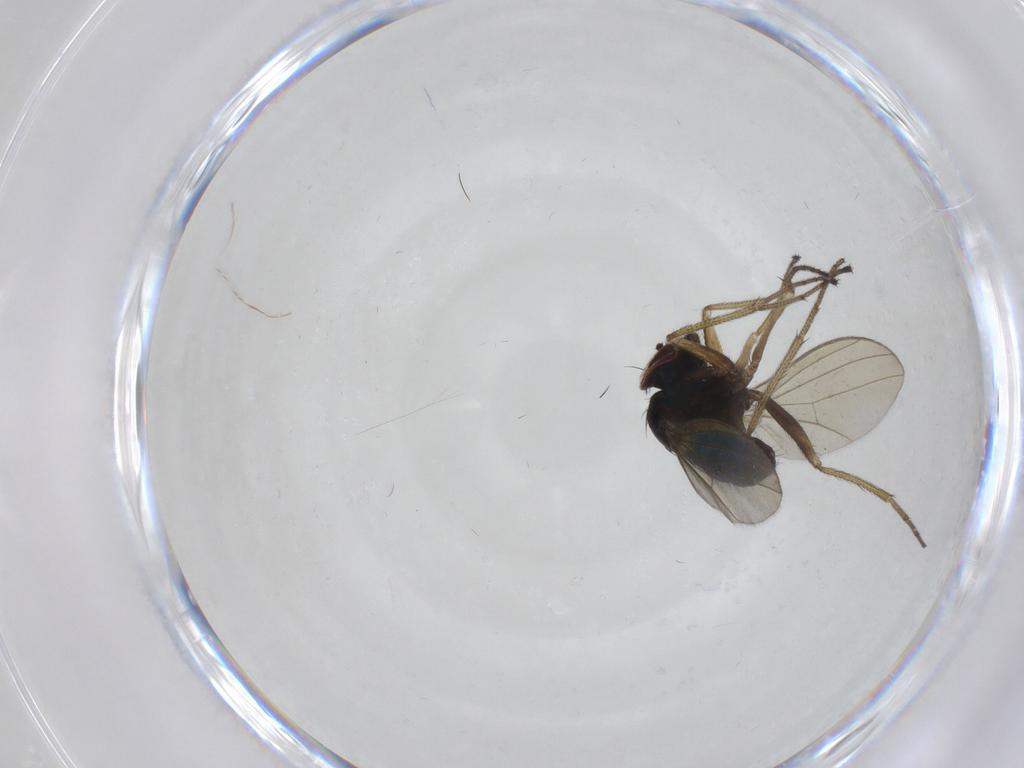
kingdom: Animalia
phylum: Arthropoda
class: Insecta
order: Diptera
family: Dolichopodidae
